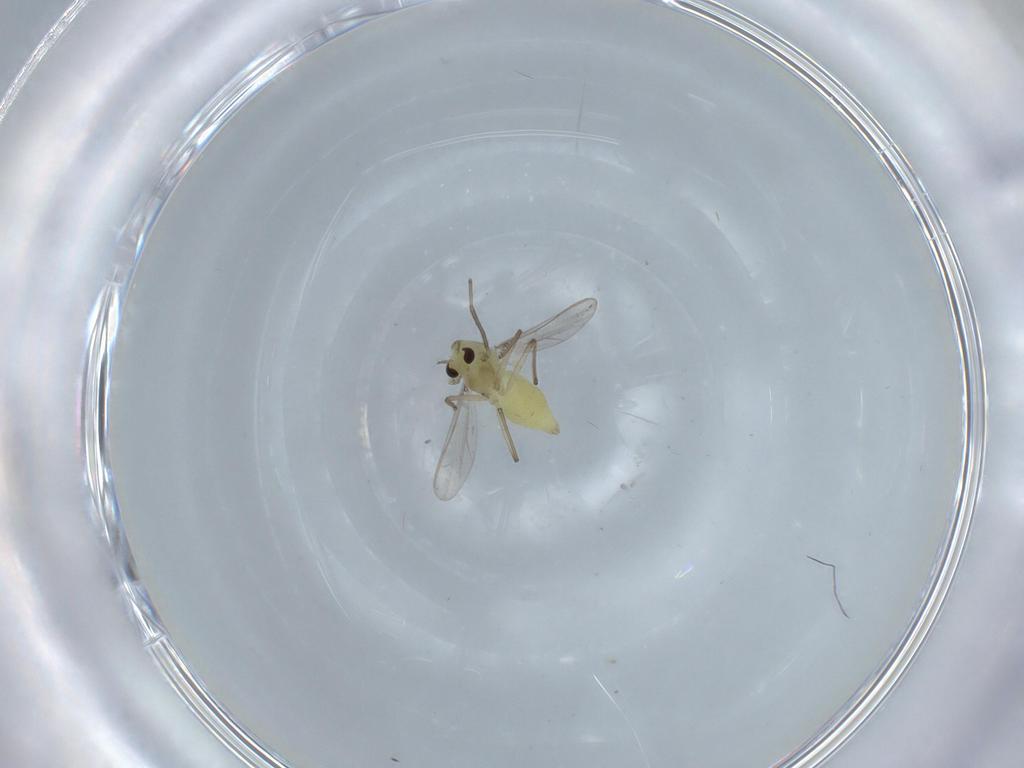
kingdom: Animalia
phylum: Arthropoda
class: Insecta
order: Diptera
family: Chironomidae
